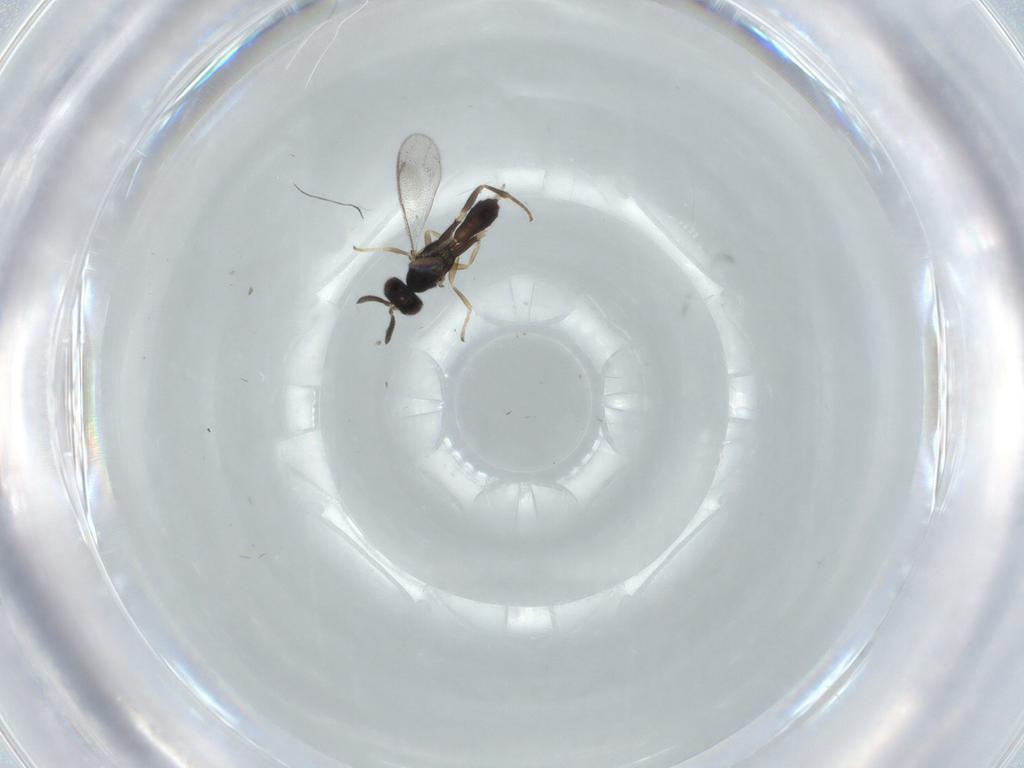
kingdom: Animalia
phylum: Arthropoda
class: Insecta
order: Hymenoptera
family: Cleonyminae
